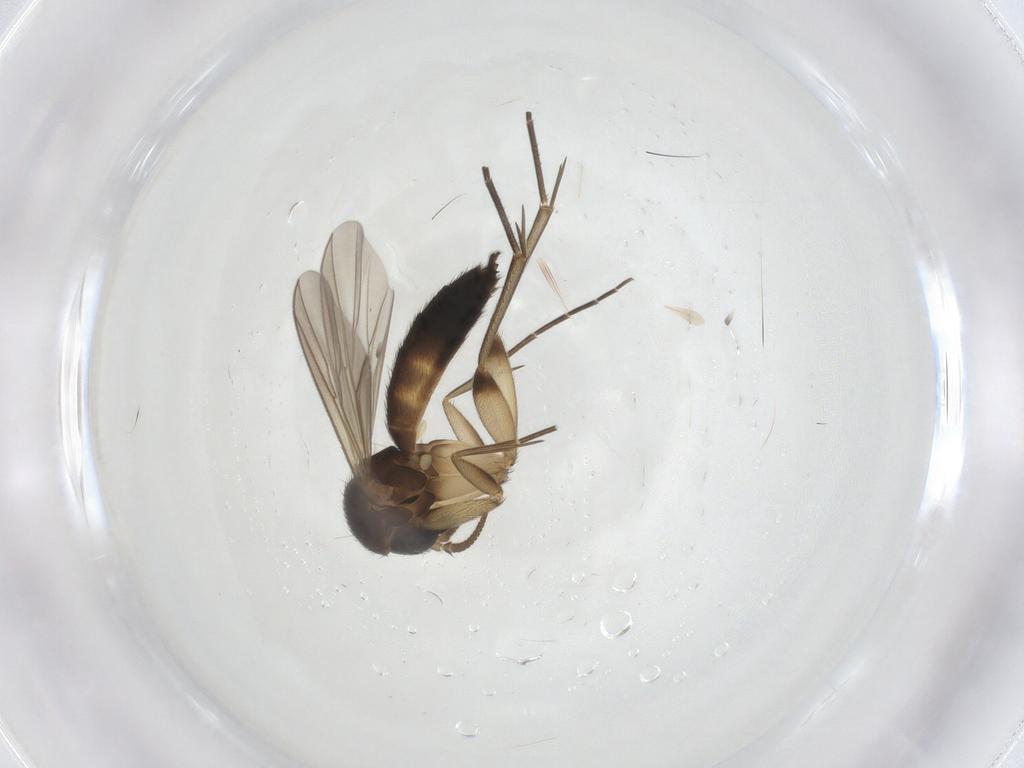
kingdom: Animalia
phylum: Arthropoda
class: Insecta
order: Diptera
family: Mycetophilidae
